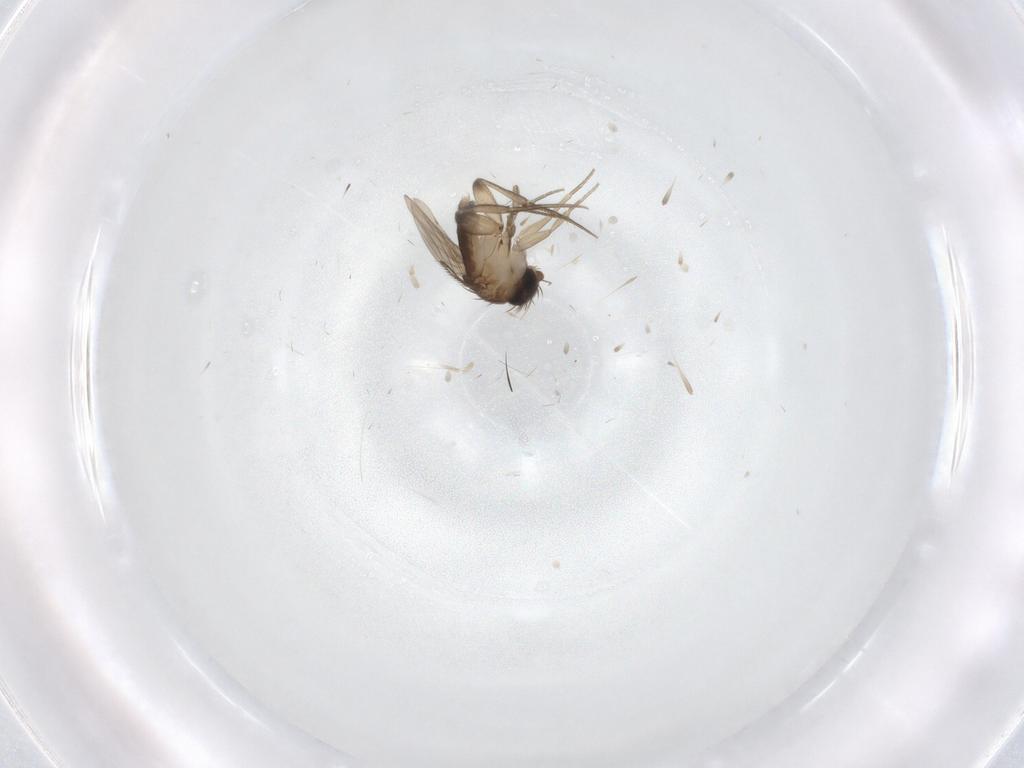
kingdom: Animalia
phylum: Arthropoda
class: Insecta
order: Diptera
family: Phoridae
